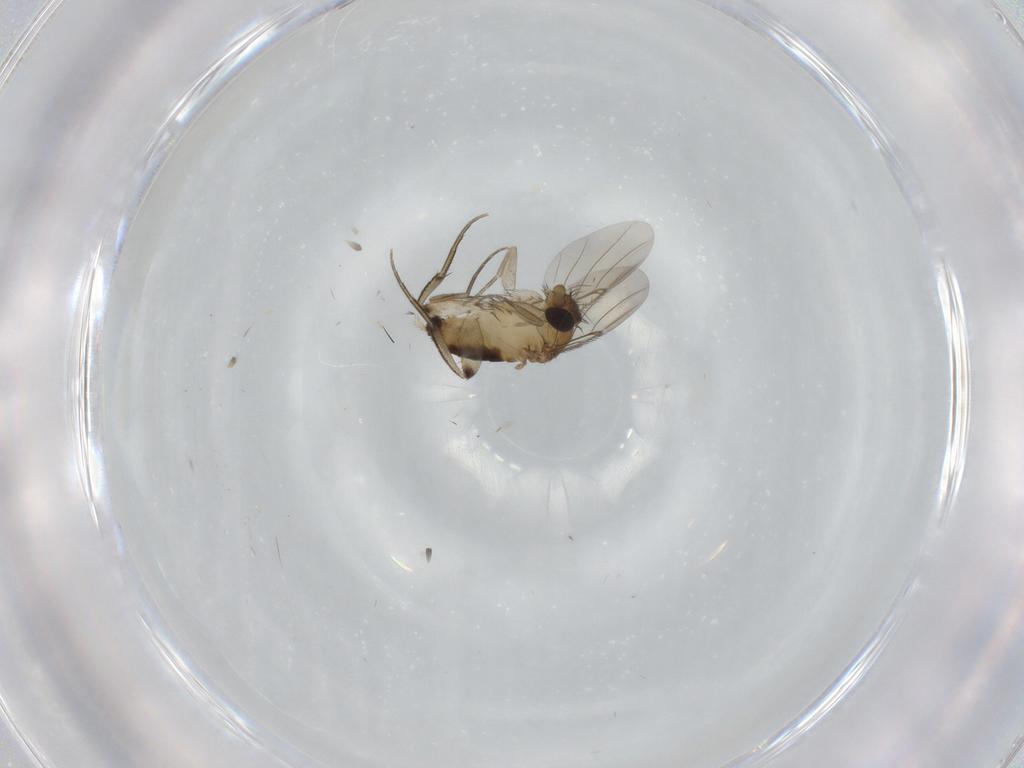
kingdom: Animalia
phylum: Arthropoda
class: Insecta
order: Diptera
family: Phoridae
